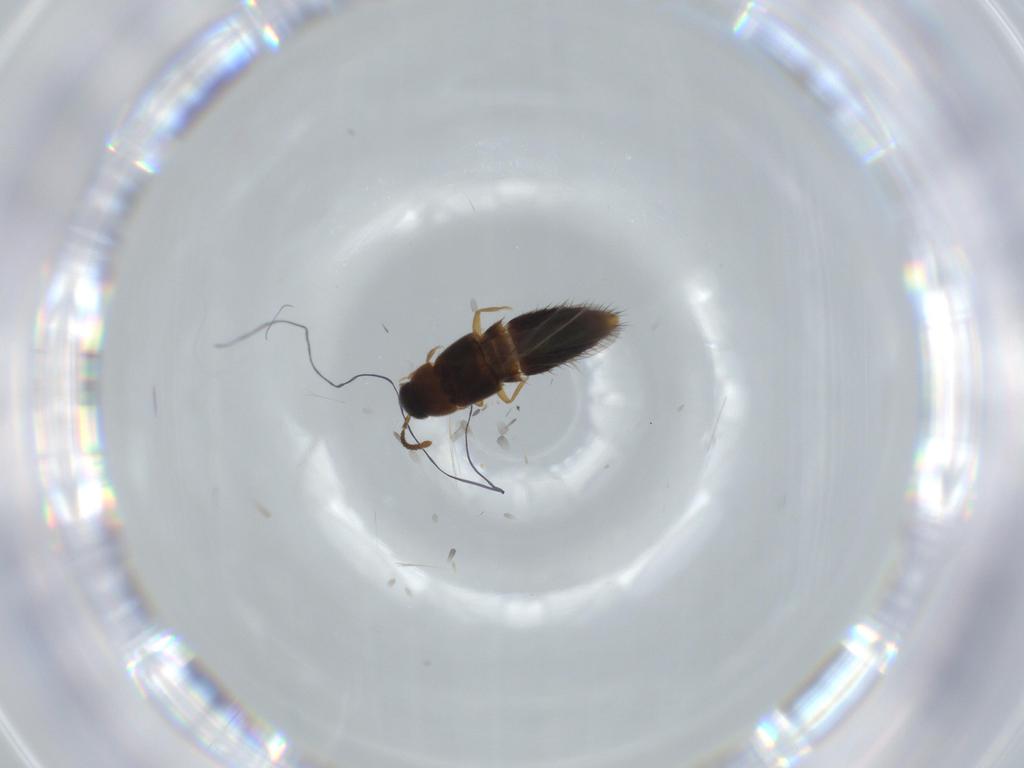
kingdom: Animalia
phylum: Arthropoda
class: Insecta
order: Coleoptera
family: Staphylinidae
